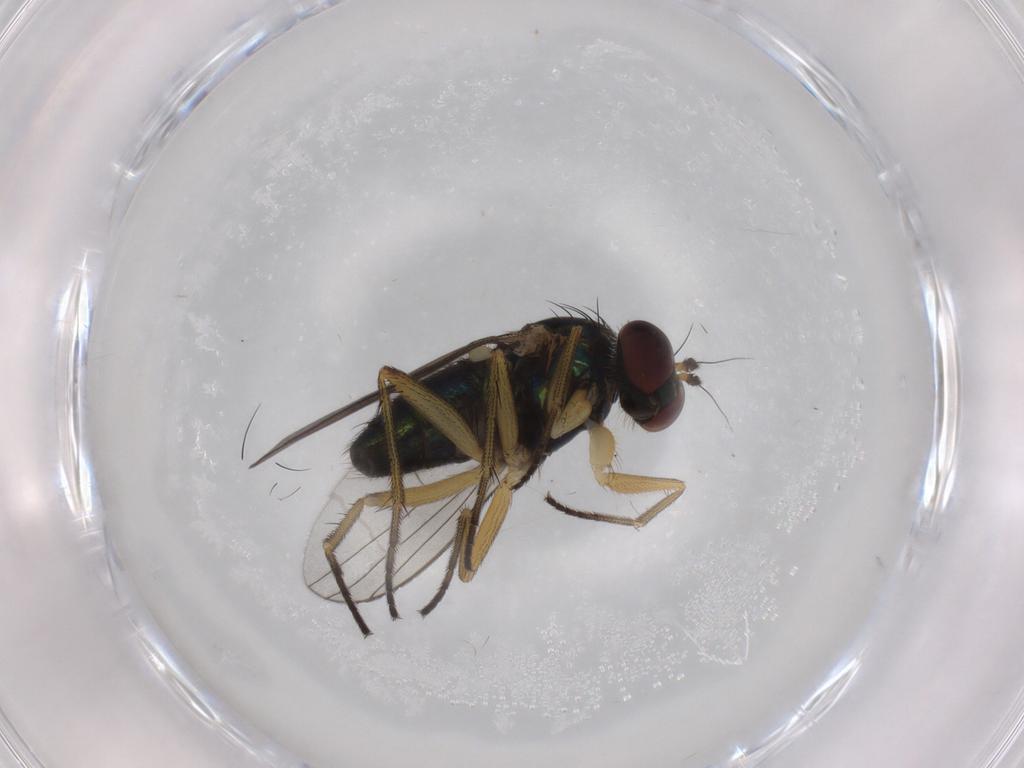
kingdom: Animalia
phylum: Arthropoda
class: Insecta
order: Diptera
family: Dolichopodidae
